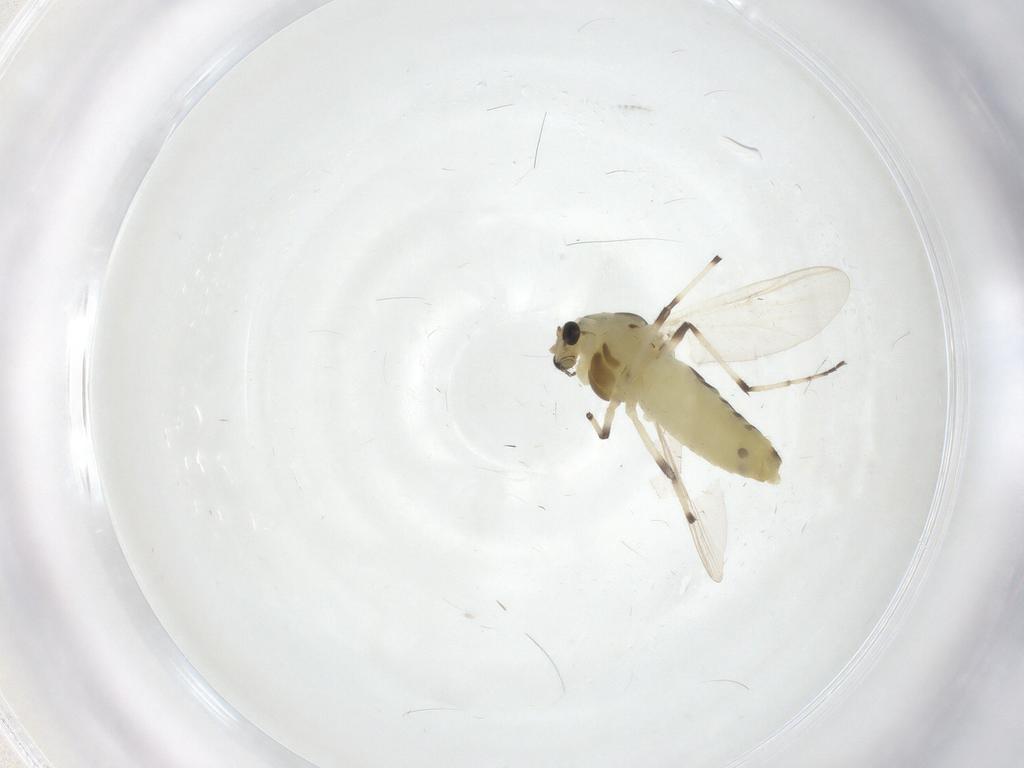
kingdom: Animalia
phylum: Arthropoda
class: Insecta
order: Diptera
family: Chironomidae
